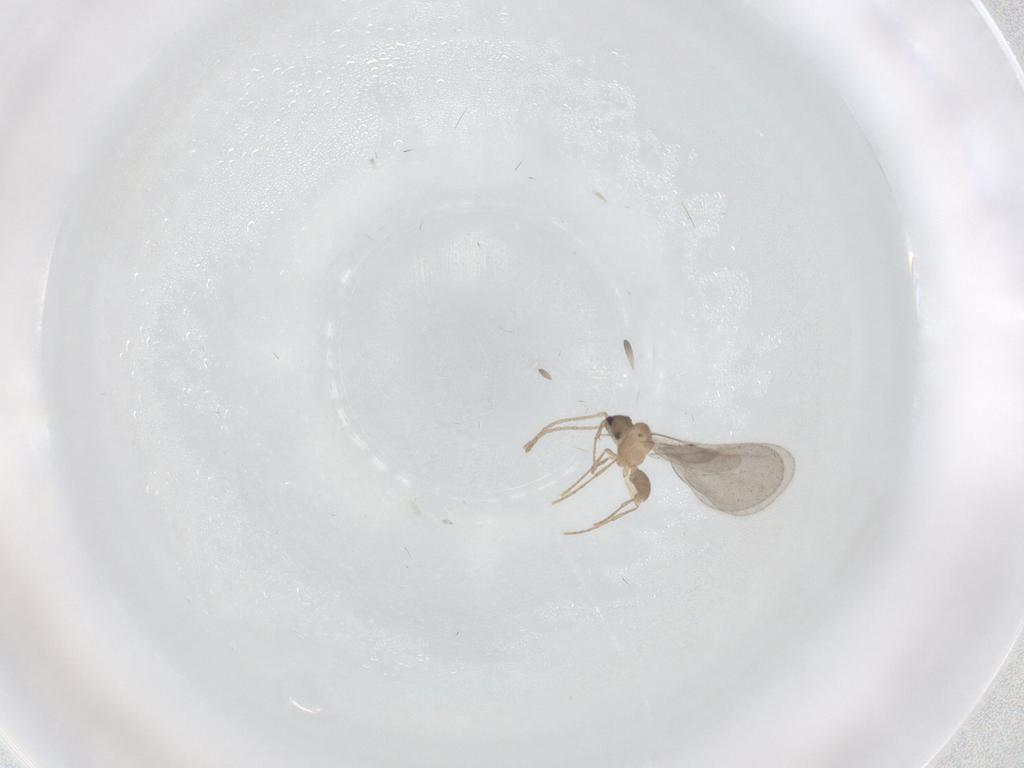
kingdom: Animalia
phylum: Arthropoda
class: Insecta
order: Hymenoptera
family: Formicidae
